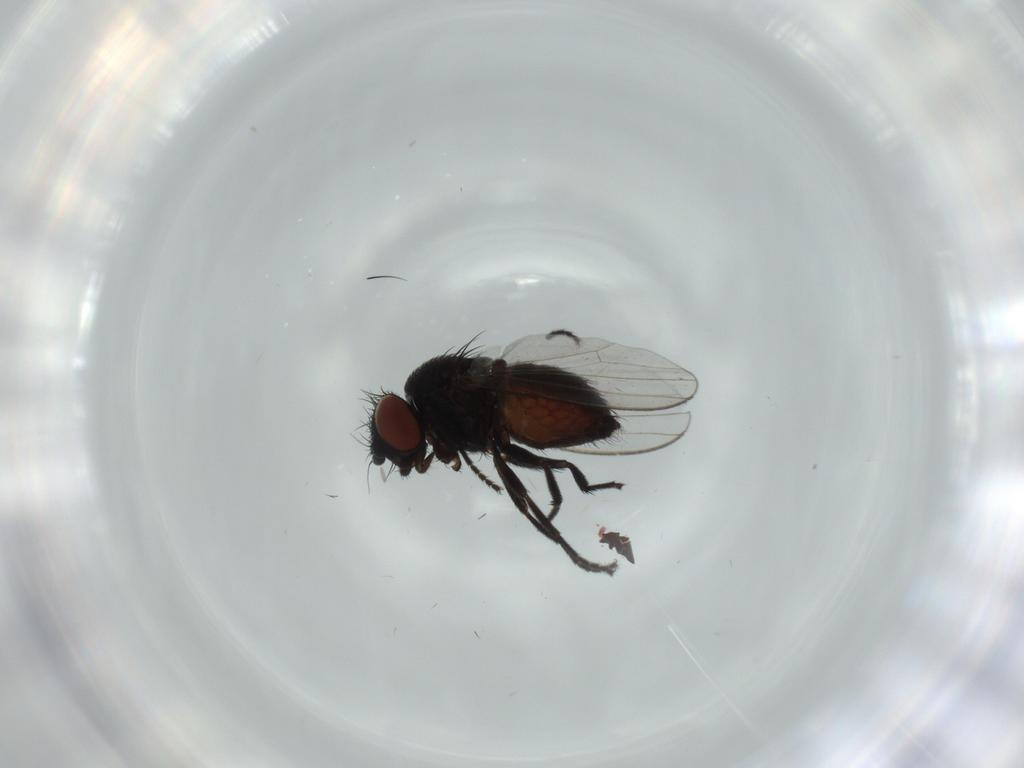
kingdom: Animalia
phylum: Arthropoda
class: Insecta
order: Diptera
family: Milichiidae
